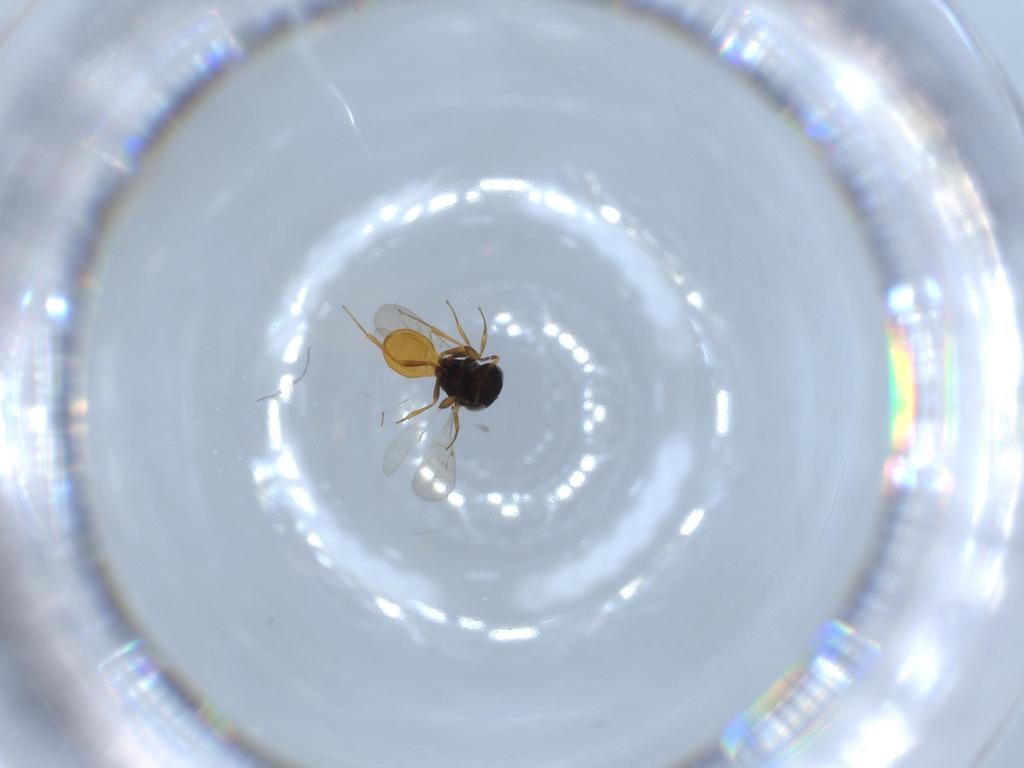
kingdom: Animalia
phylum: Arthropoda
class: Insecta
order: Hymenoptera
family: Scelionidae
